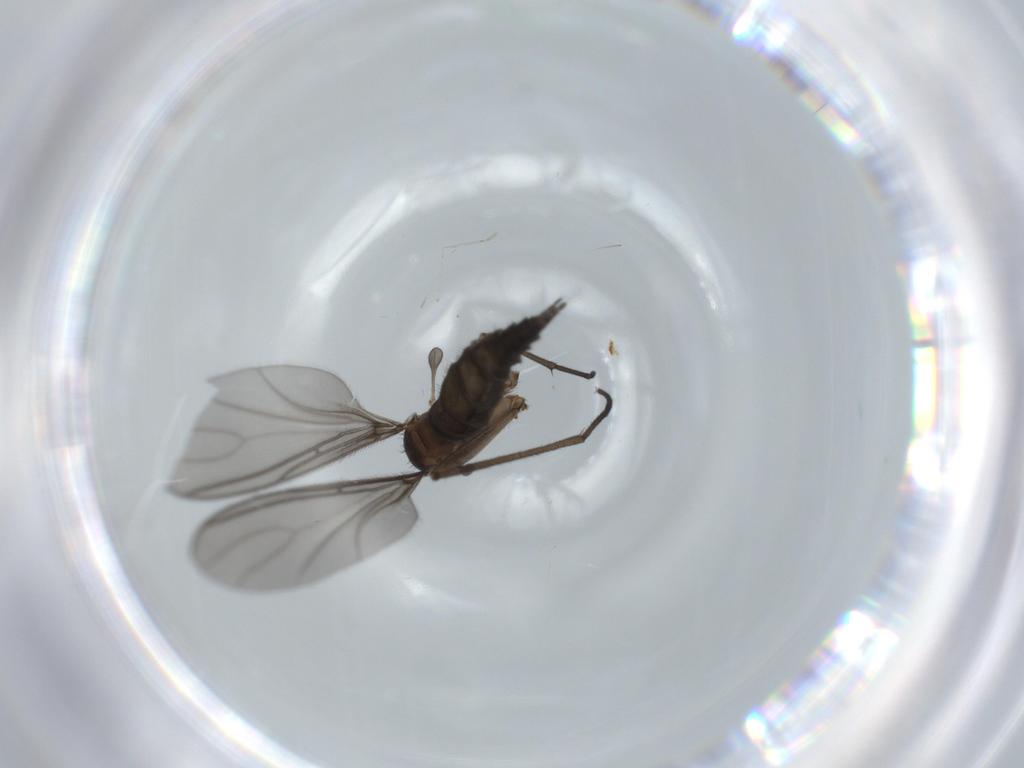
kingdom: Animalia
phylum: Arthropoda
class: Insecta
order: Diptera
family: Sciaridae
